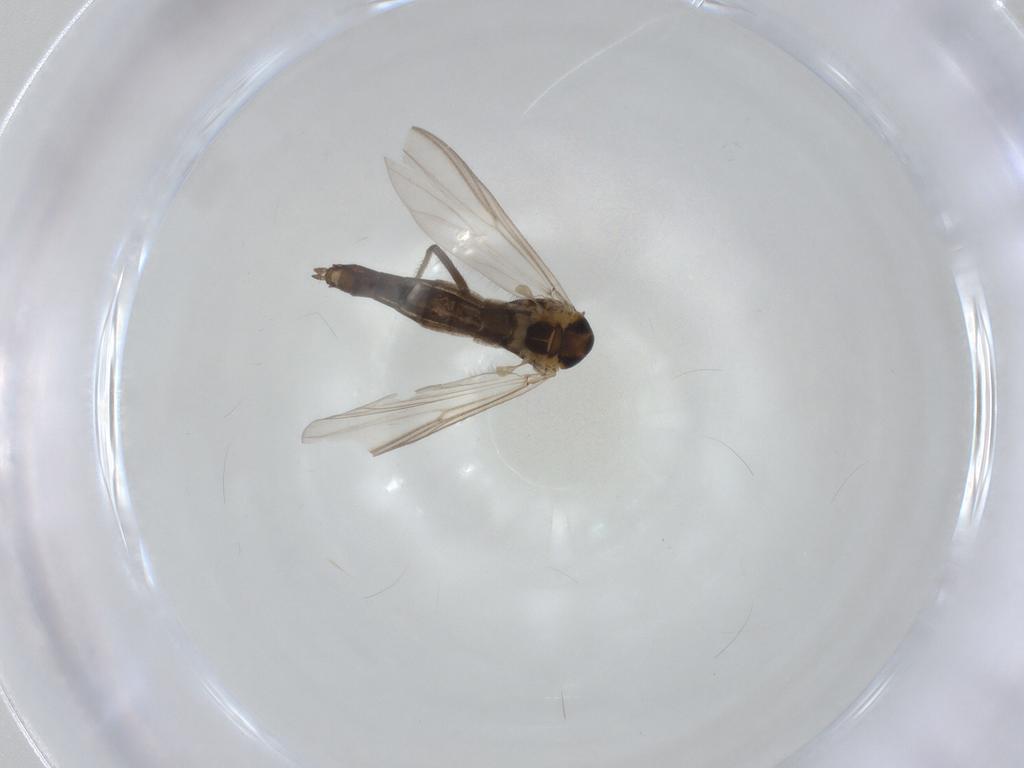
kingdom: Animalia
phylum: Arthropoda
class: Insecta
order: Diptera
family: Chironomidae
